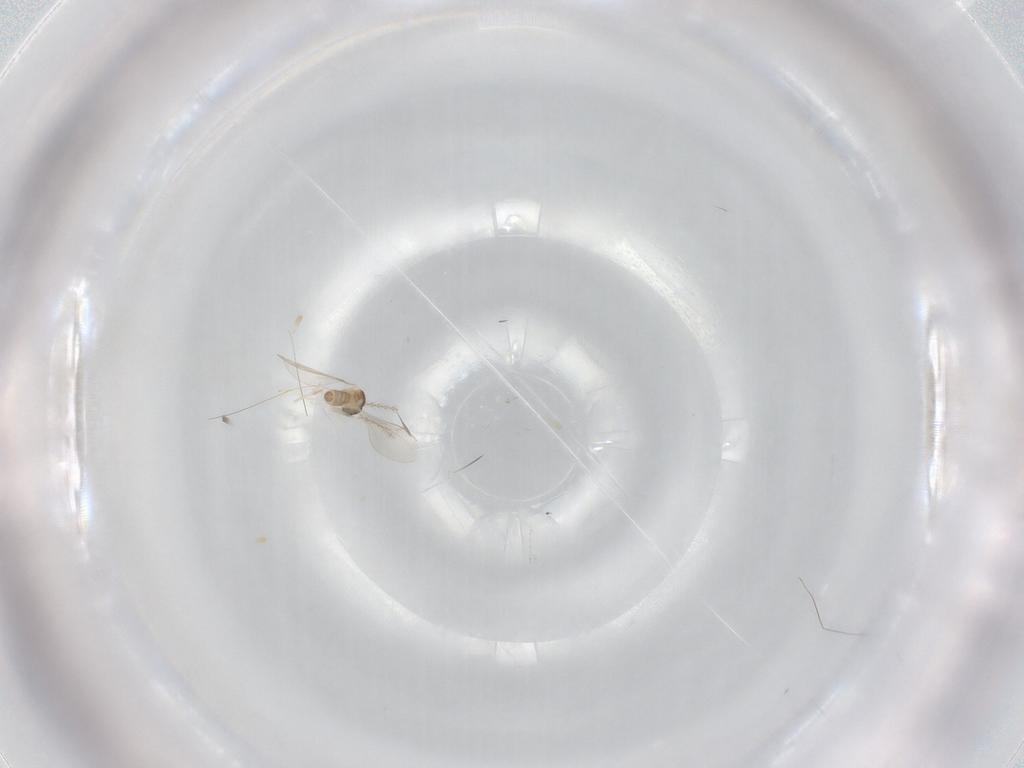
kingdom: Animalia
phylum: Arthropoda
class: Insecta
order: Diptera
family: Cecidomyiidae
